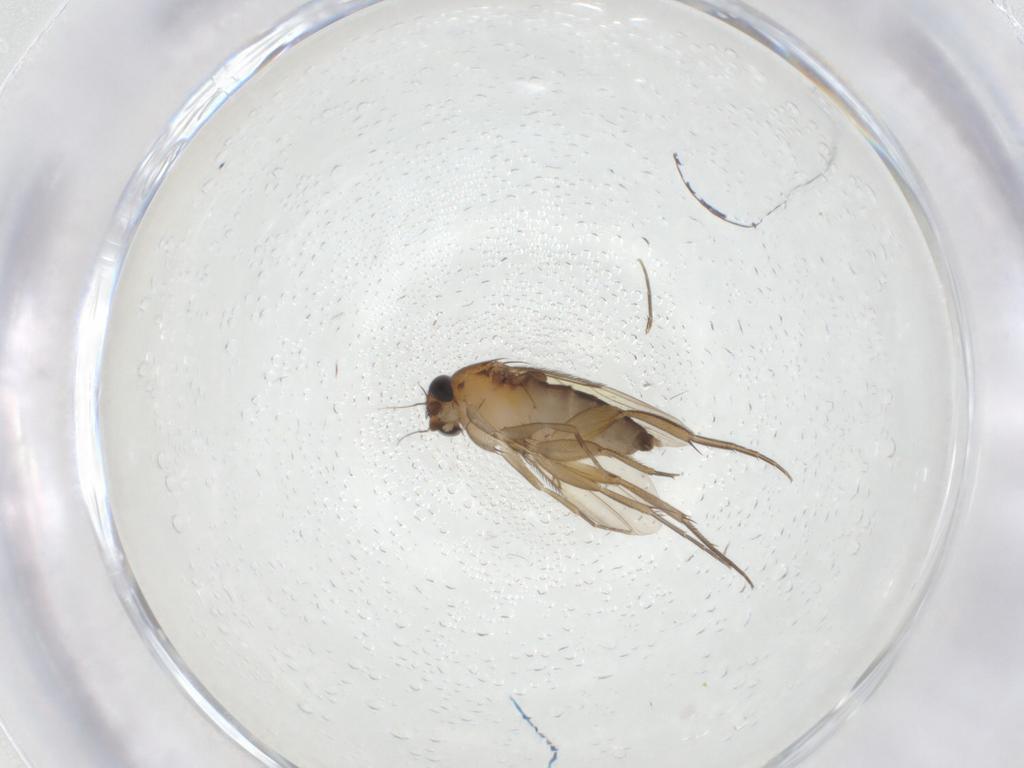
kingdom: Animalia
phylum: Arthropoda
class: Insecta
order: Diptera
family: Phoridae
